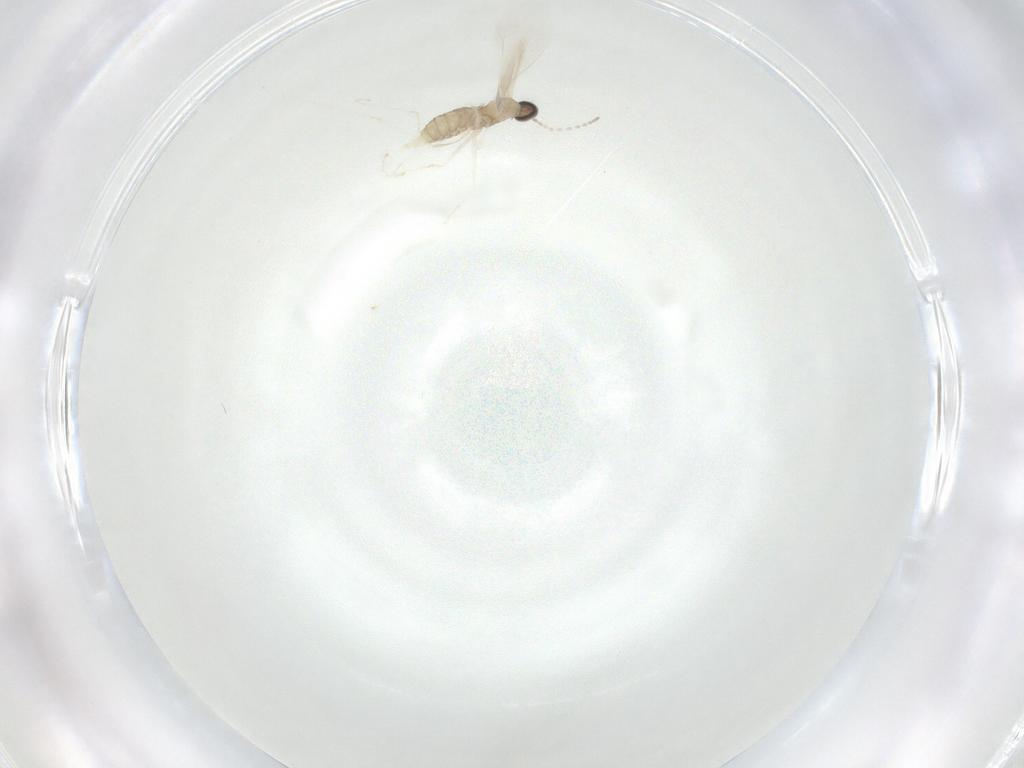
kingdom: Animalia
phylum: Arthropoda
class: Insecta
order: Diptera
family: Cecidomyiidae
